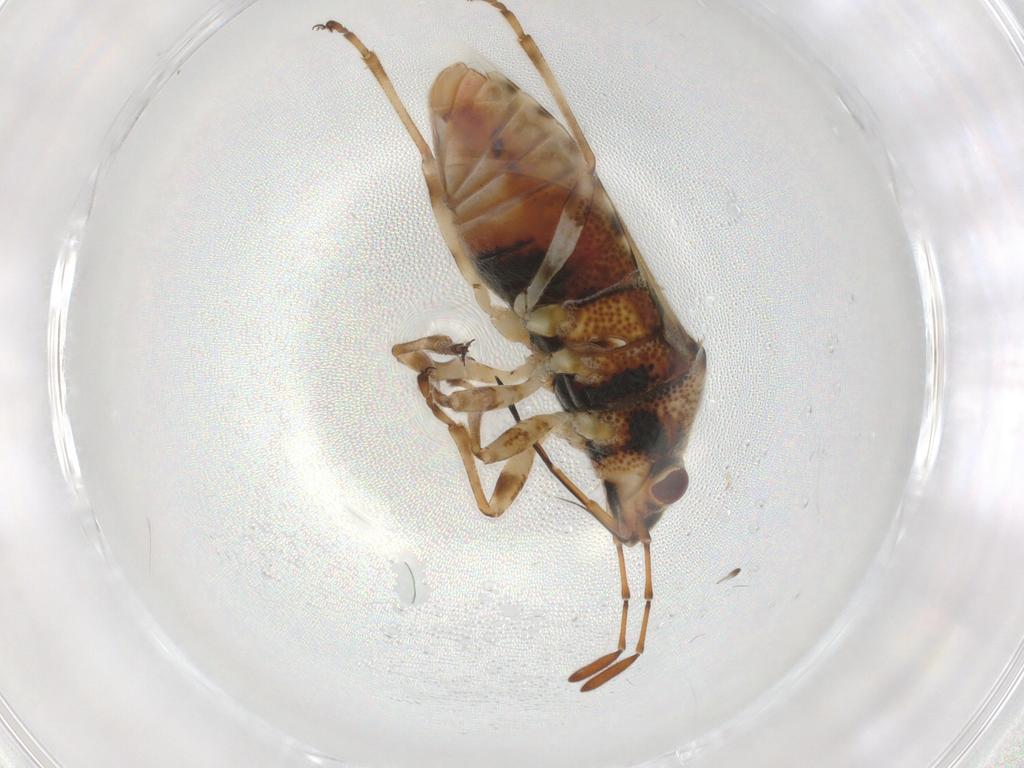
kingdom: Animalia
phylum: Arthropoda
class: Insecta
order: Hemiptera
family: Lygaeidae
